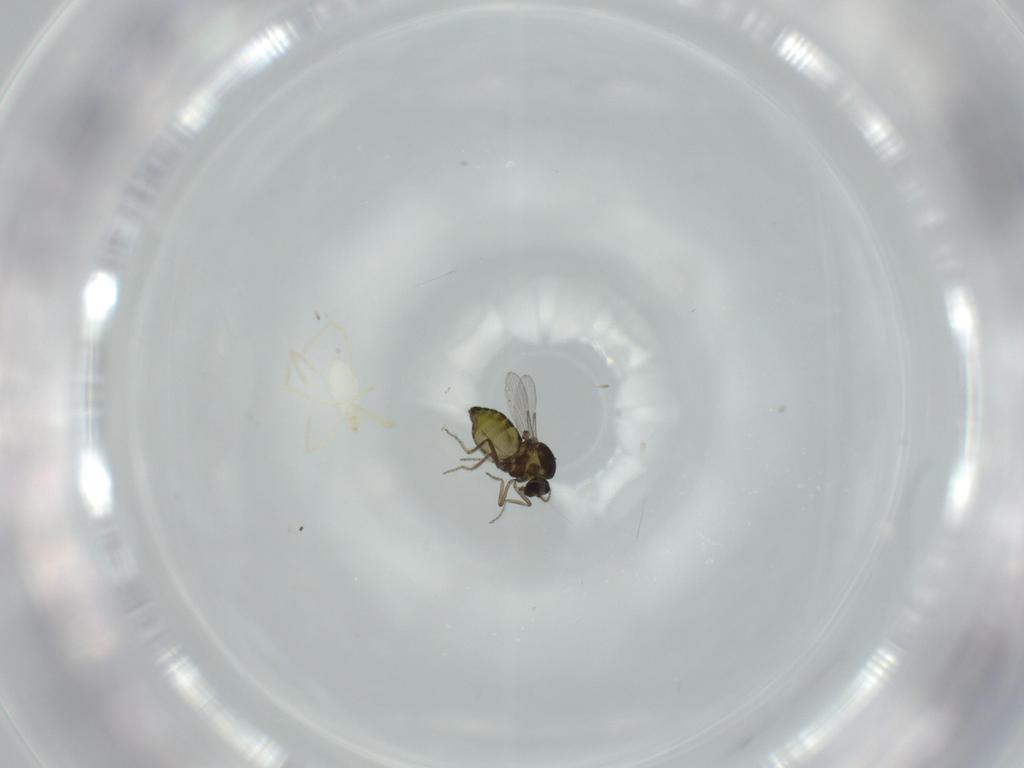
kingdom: Animalia
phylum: Arthropoda
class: Insecta
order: Diptera
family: Ceratopogonidae
